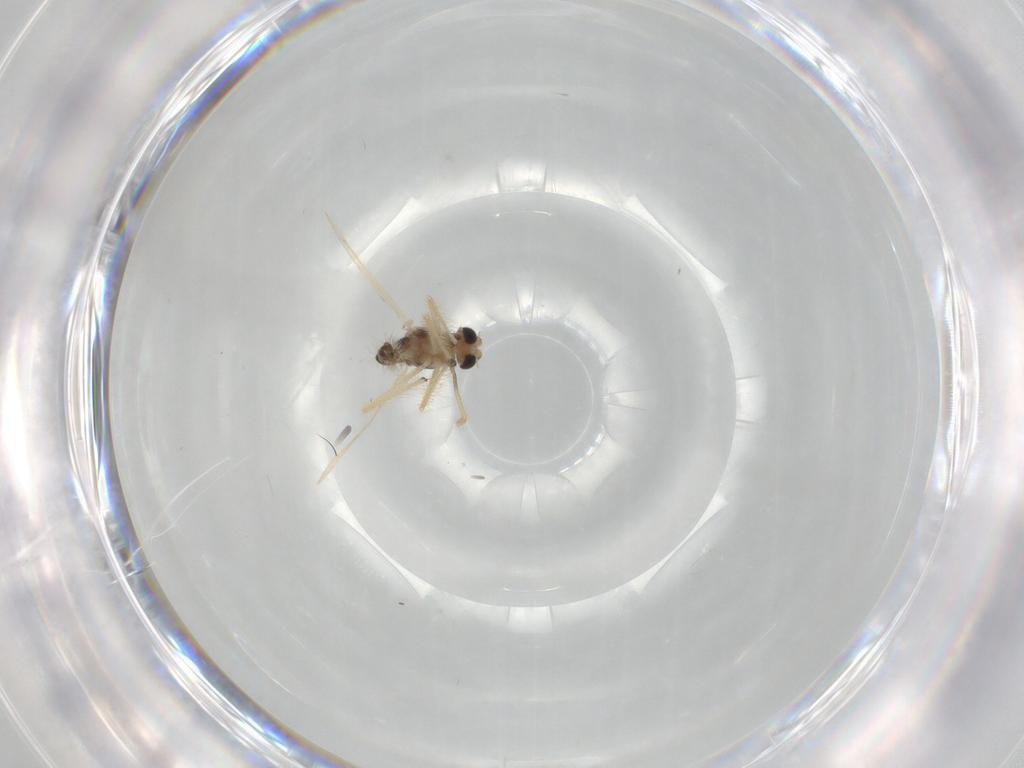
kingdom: Animalia
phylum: Arthropoda
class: Insecta
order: Diptera
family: Chironomidae
